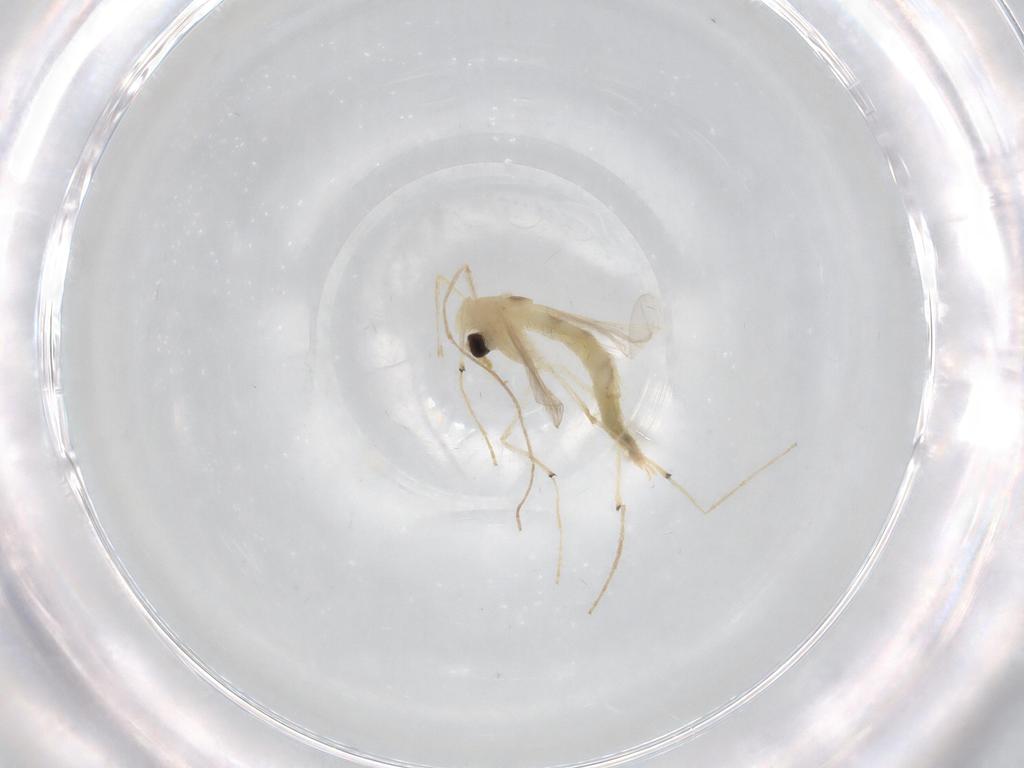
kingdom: Animalia
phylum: Arthropoda
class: Insecta
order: Diptera
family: Chironomidae
